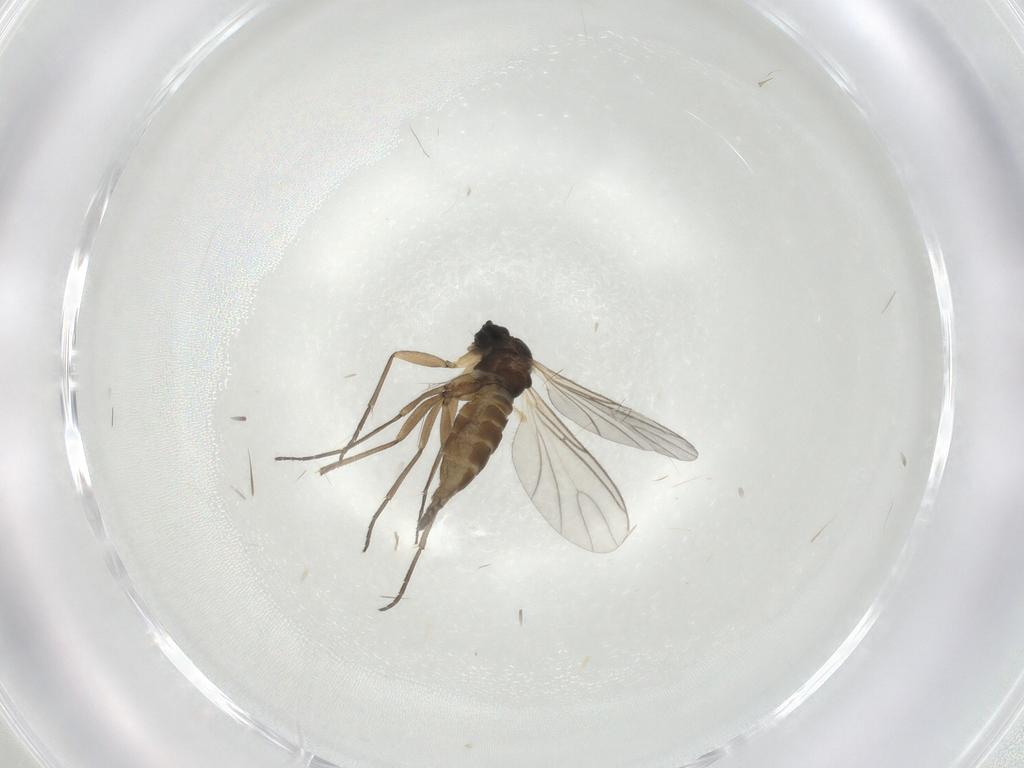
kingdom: Animalia
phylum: Arthropoda
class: Insecta
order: Diptera
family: Sciaridae
